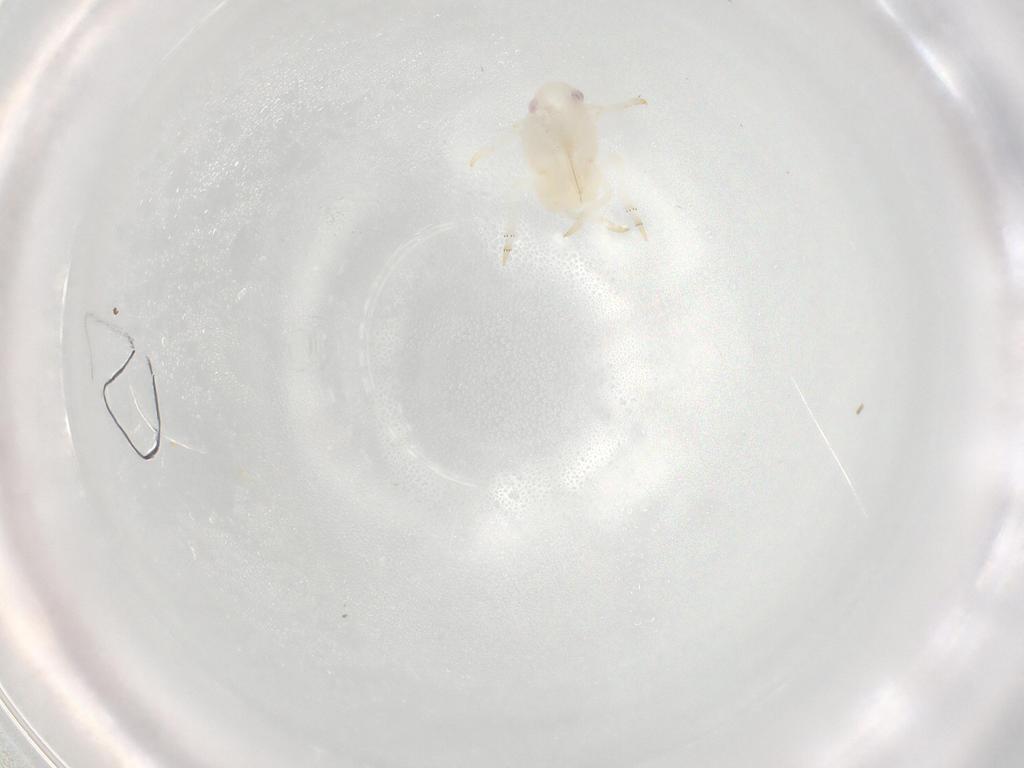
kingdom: Animalia
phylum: Arthropoda
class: Insecta
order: Hemiptera
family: Flatidae
